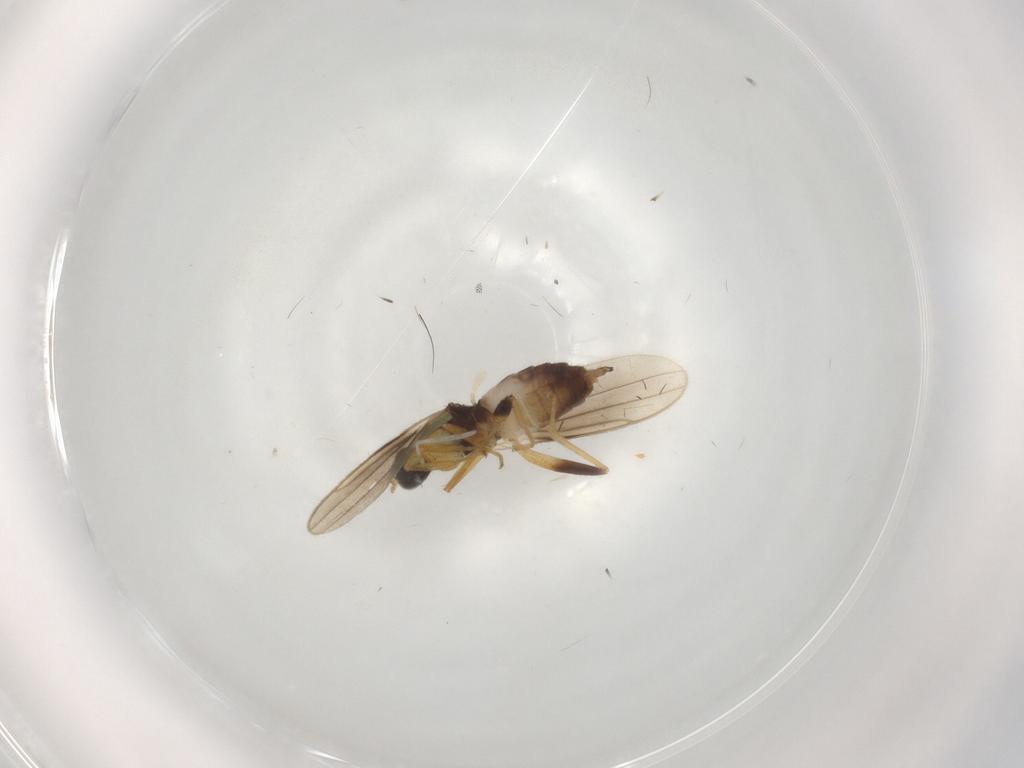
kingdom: Animalia
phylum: Arthropoda
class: Insecta
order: Diptera
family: Hybotidae
